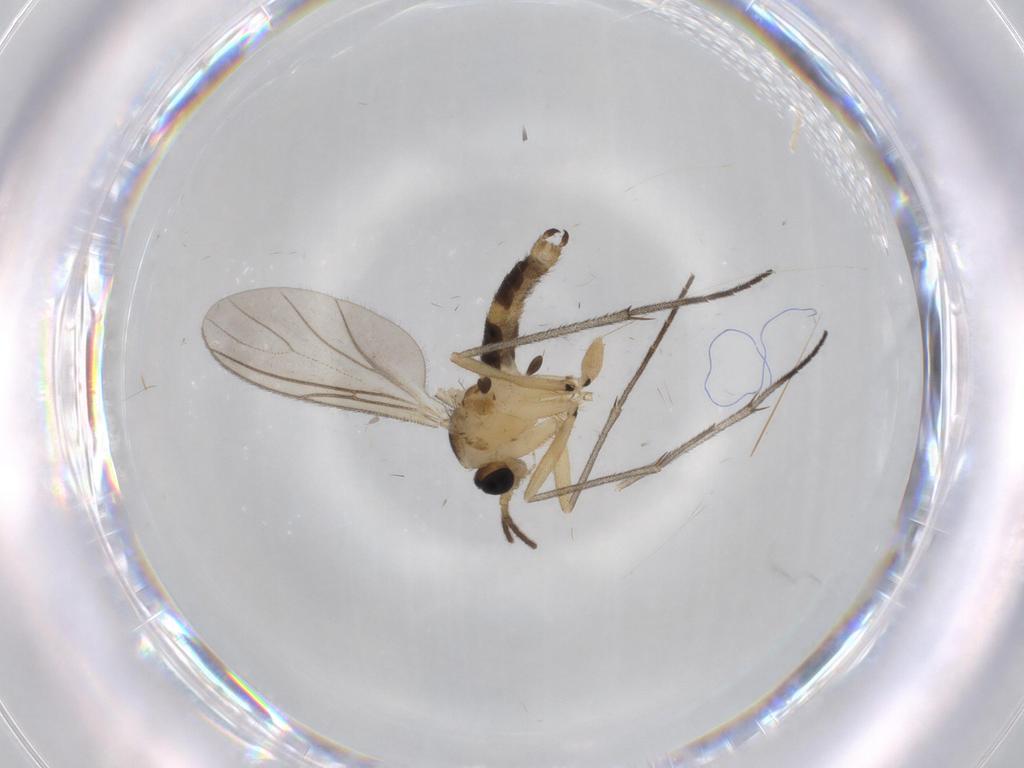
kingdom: Animalia
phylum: Arthropoda
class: Insecta
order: Diptera
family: Sciaridae
